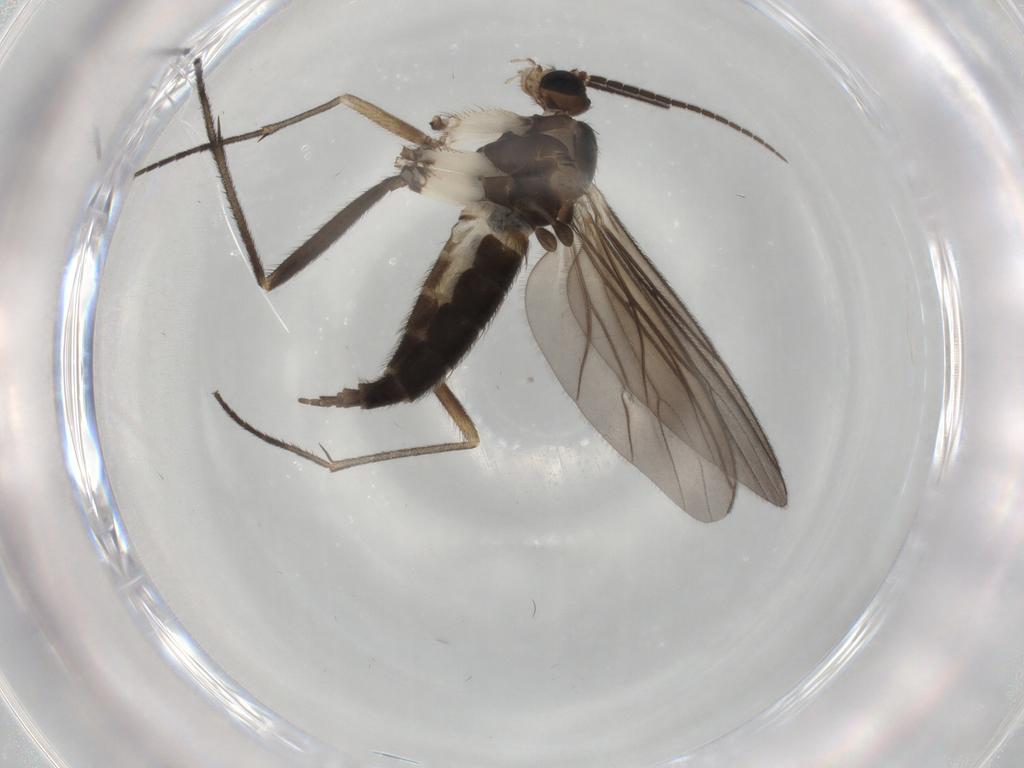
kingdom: Animalia
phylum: Arthropoda
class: Insecta
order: Diptera
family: Sciaridae
